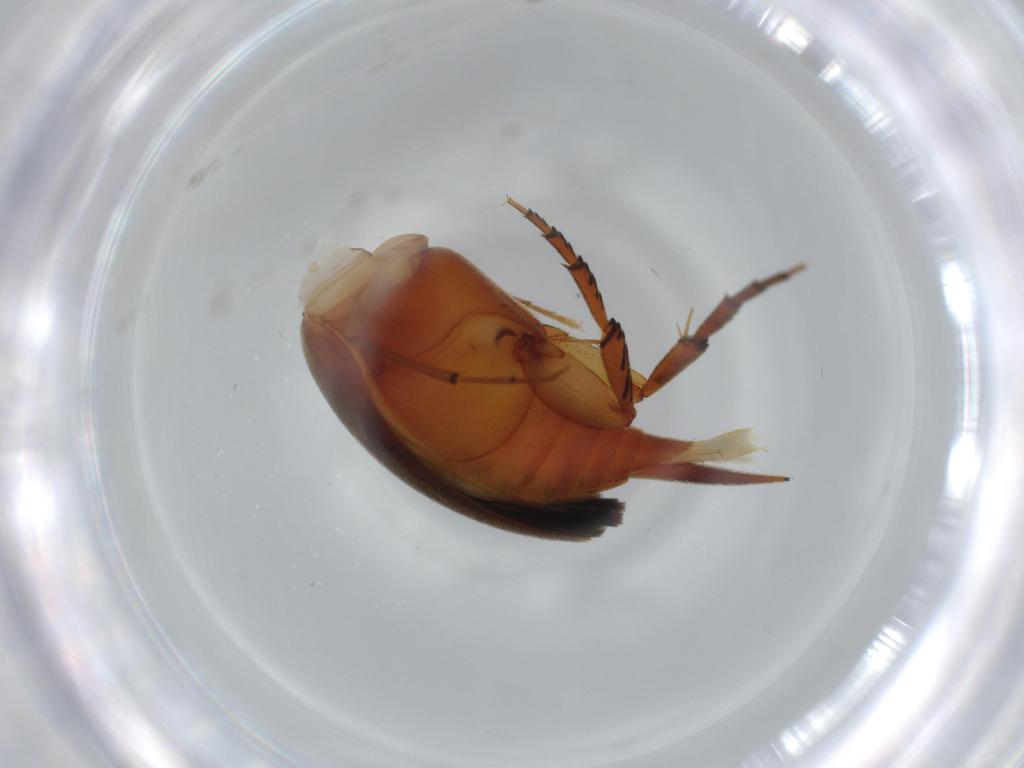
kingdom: Animalia
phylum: Arthropoda
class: Insecta
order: Coleoptera
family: Mordellidae
